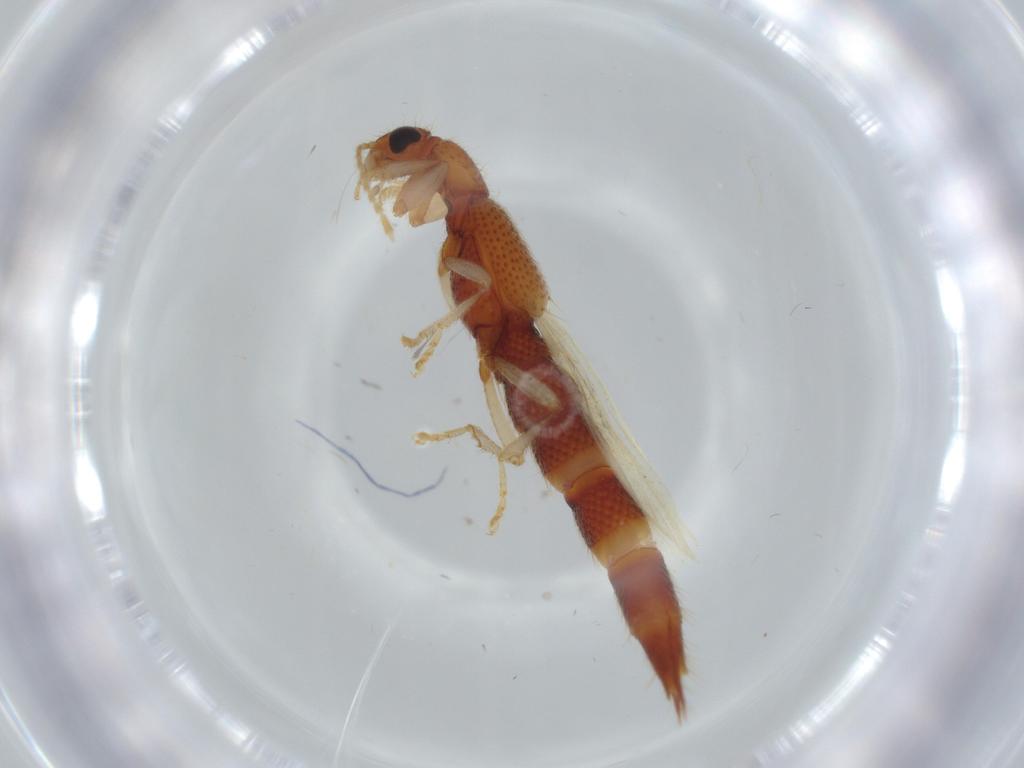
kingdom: Animalia
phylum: Arthropoda
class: Insecta
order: Coleoptera
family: Staphylinidae
